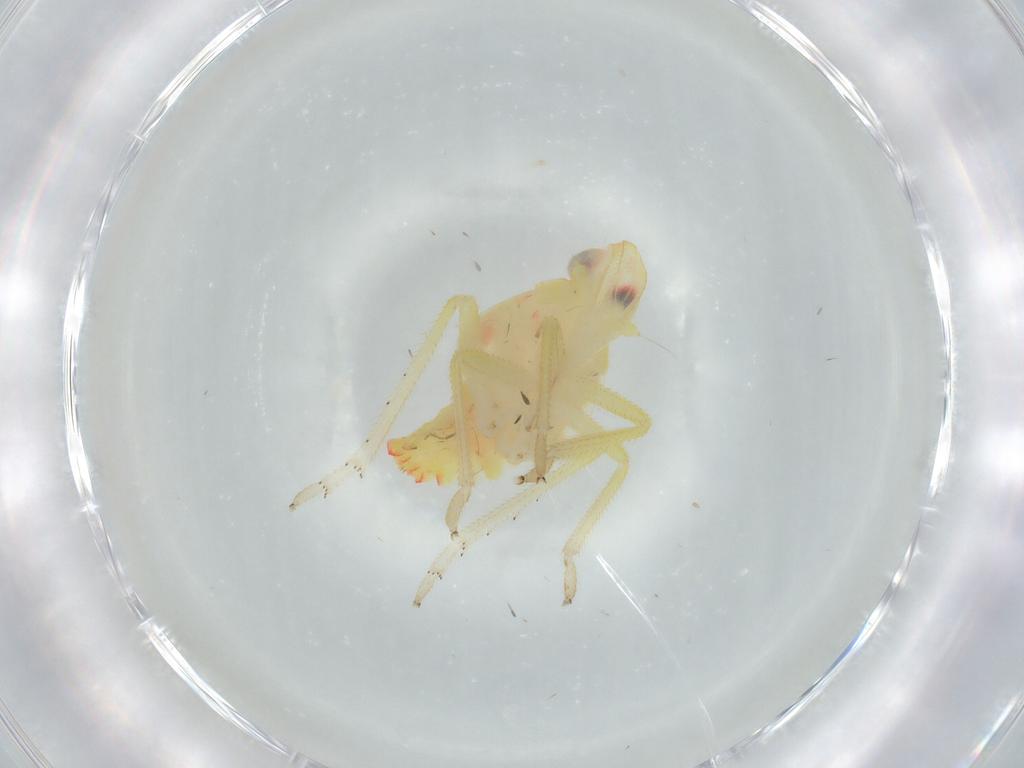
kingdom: Animalia
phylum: Arthropoda
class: Insecta
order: Hemiptera
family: Tropiduchidae
